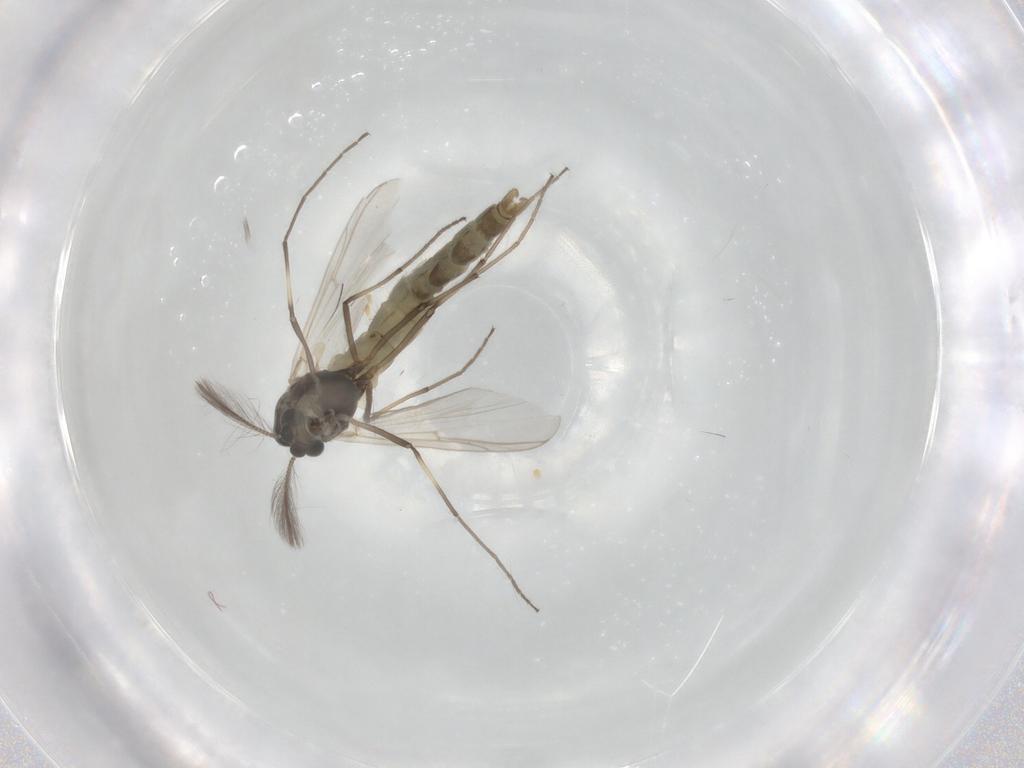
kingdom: Animalia
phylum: Arthropoda
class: Insecta
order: Diptera
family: Chironomidae
